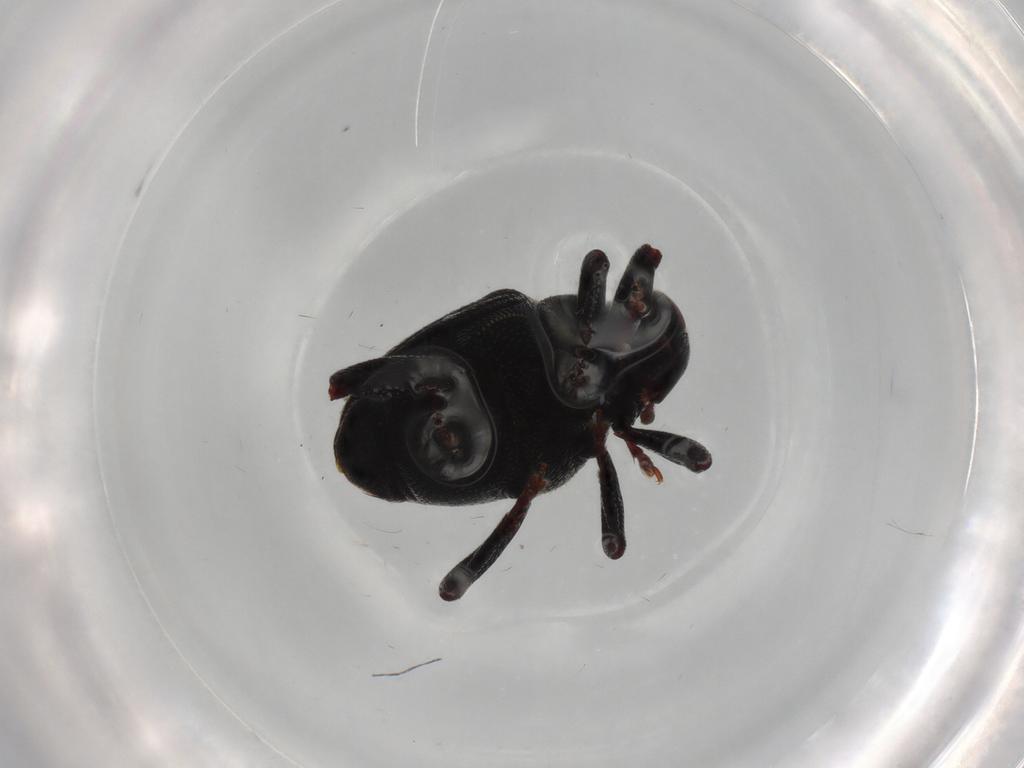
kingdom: Animalia
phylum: Arthropoda
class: Insecta
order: Coleoptera
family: Curculionidae
